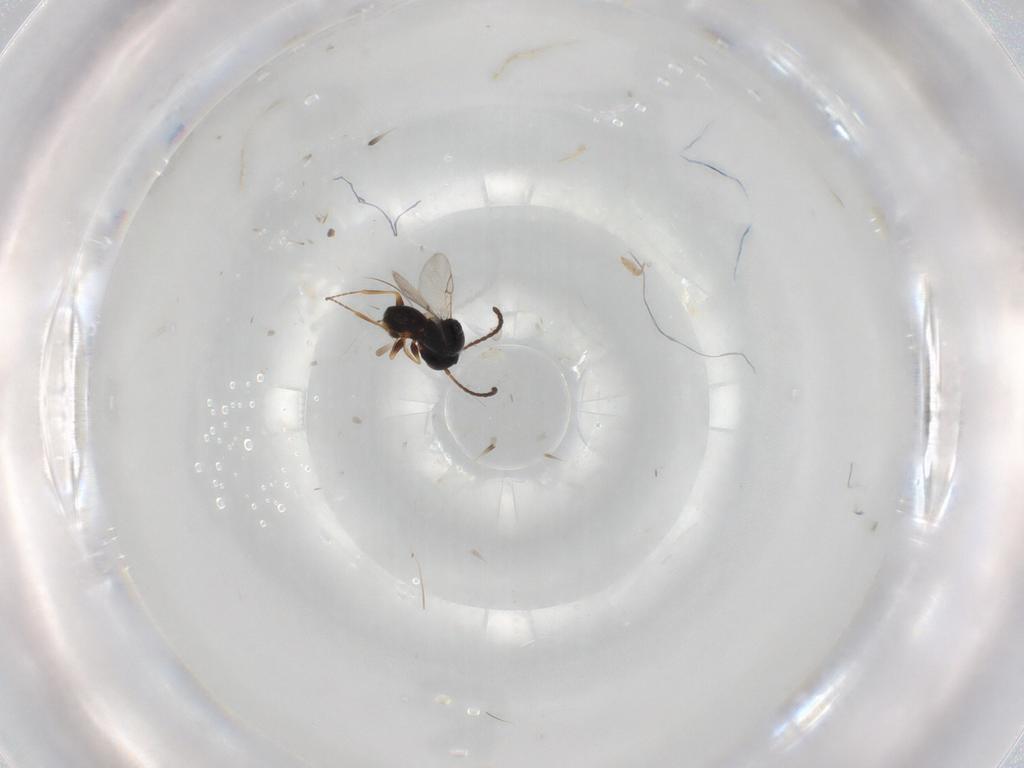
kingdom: Animalia
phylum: Arthropoda
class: Insecta
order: Hymenoptera
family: Figitidae
